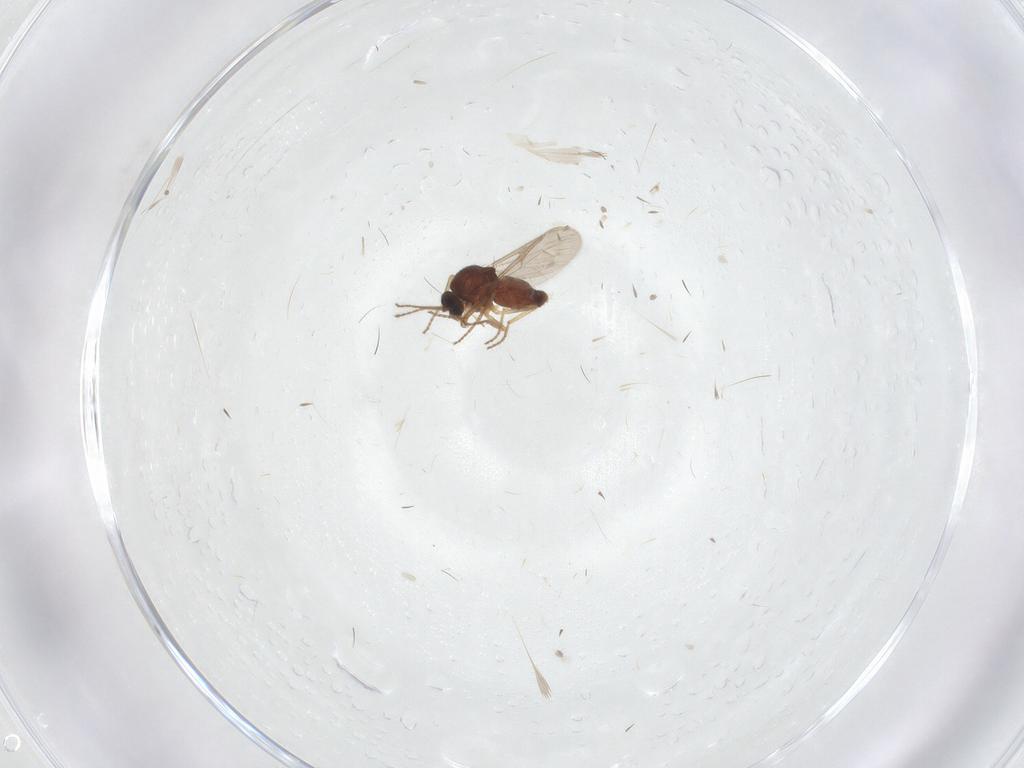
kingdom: Animalia
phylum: Arthropoda
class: Insecta
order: Diptera
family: Ceratopogonidae
